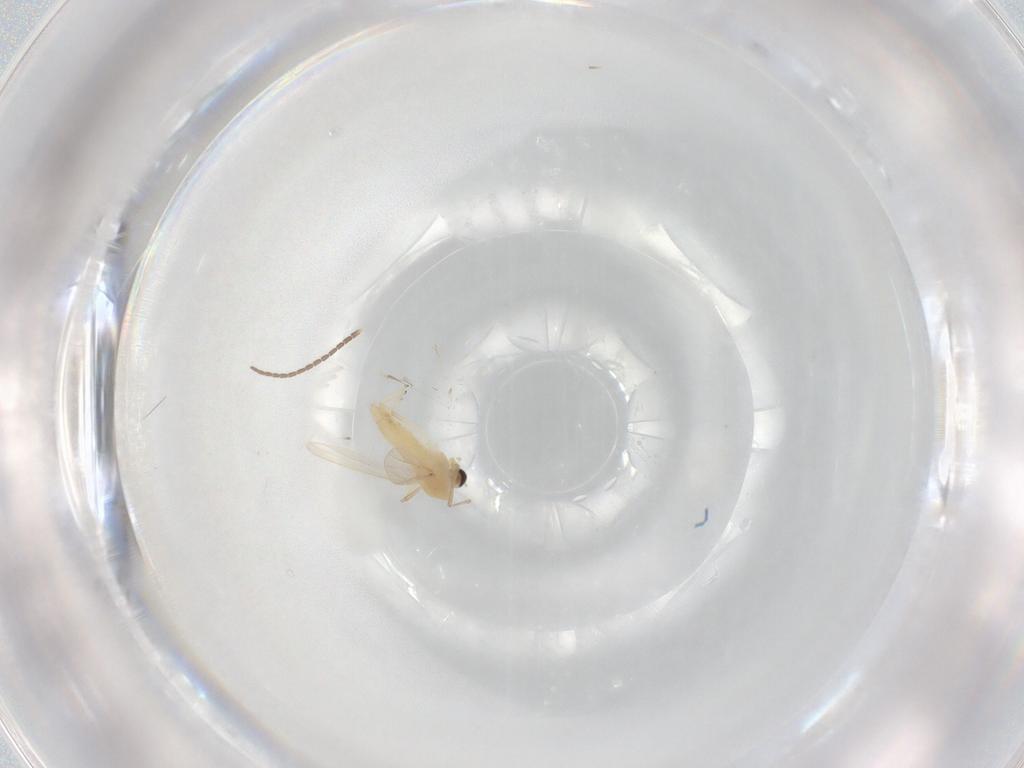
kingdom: Animalia
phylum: Arthropoda
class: Insecta
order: Diptera
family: Sciaridae
